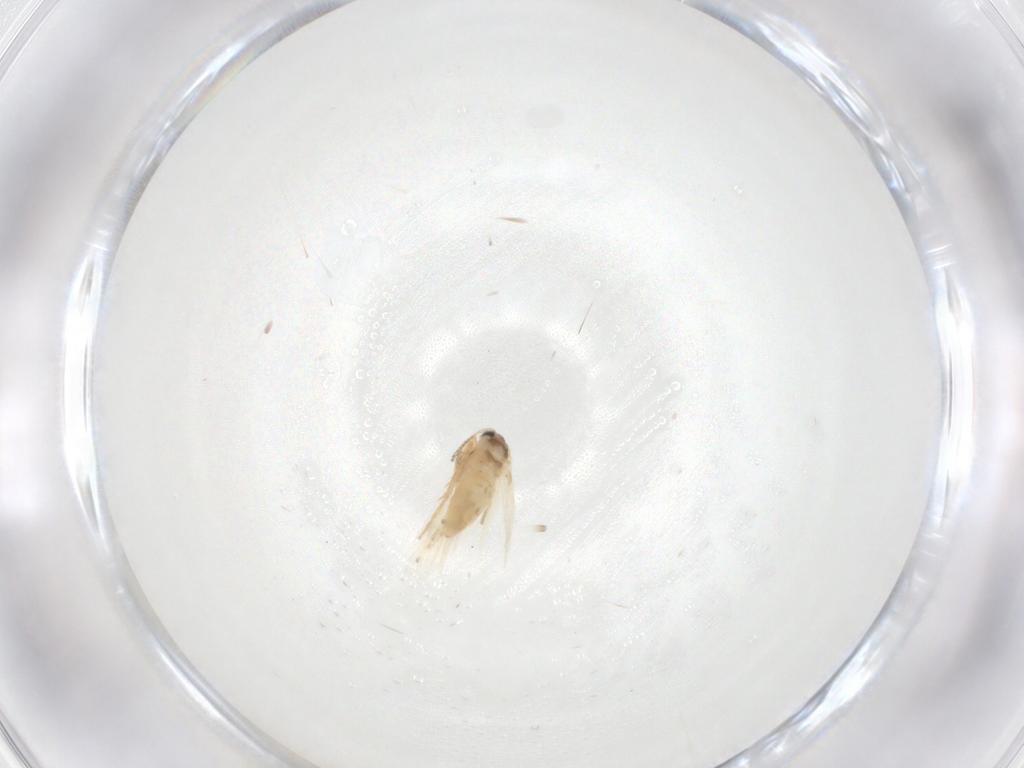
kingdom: Animalia
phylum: Arthropoda
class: Insecta
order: Lepidoptera
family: Crambidae
